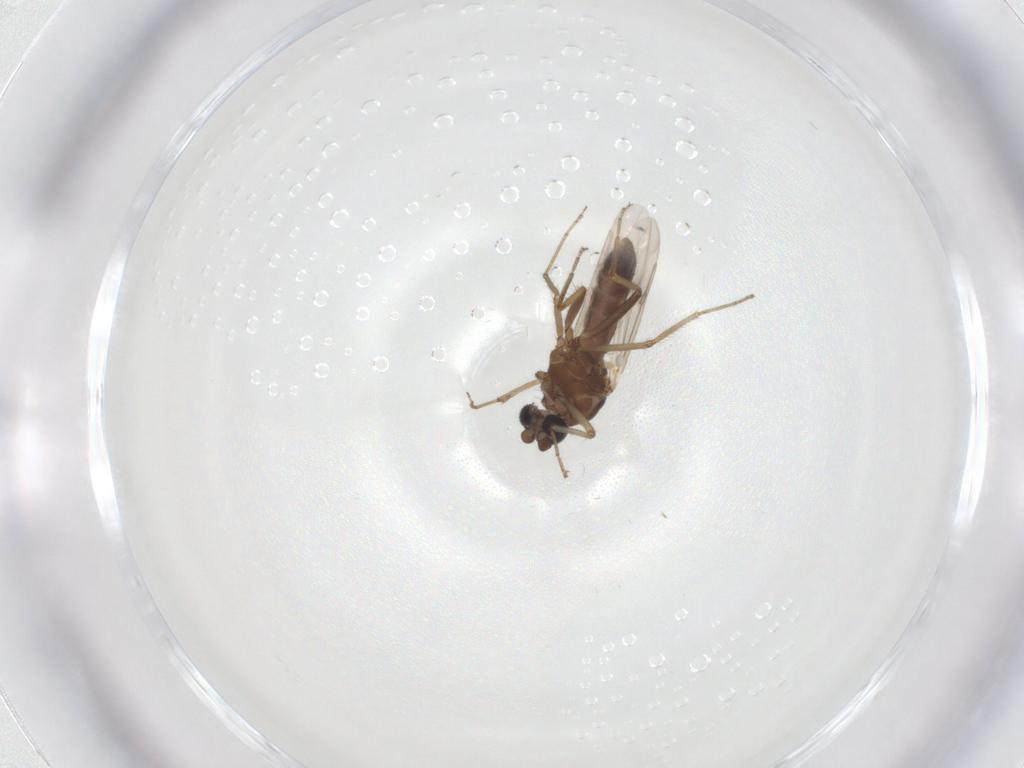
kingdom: Animalia
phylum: Arthropoda
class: Insecta
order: Diptera
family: Ceratopogonidae
